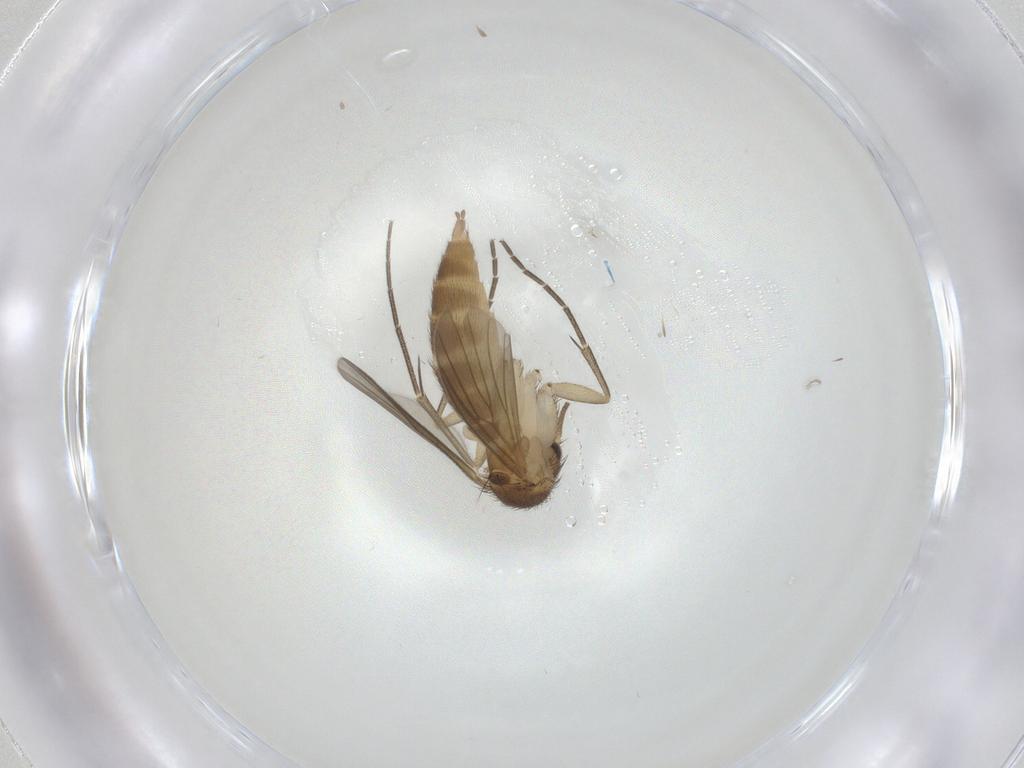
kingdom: Animalia
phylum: Arthropoda
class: Insecta
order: Diptera
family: Mycetophilidae
